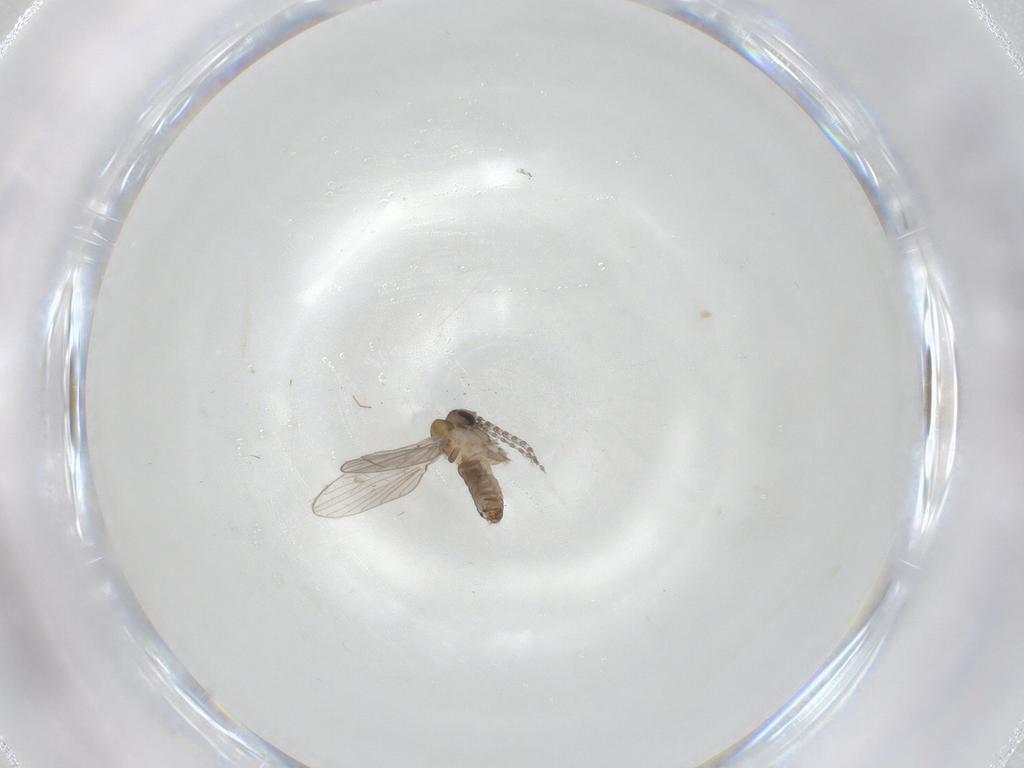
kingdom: Animalia
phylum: Arthropoda
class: Insecta
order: Diptera
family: Psychodidae
